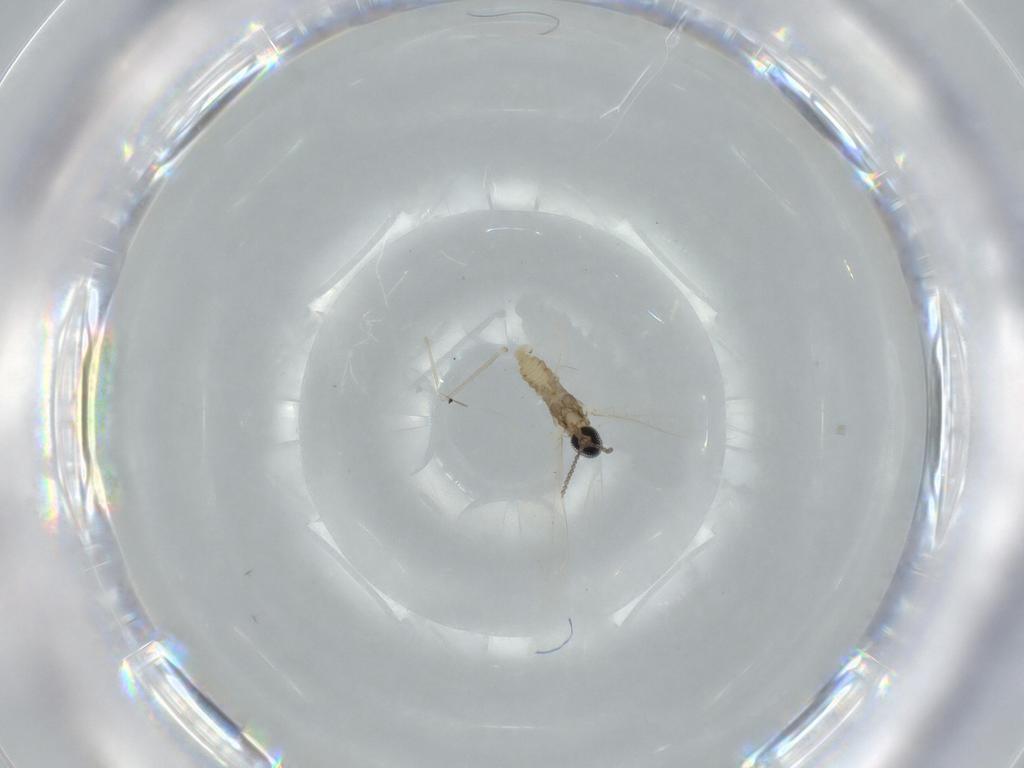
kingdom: Animalia
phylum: Arthropoda
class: Insecta
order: Diptera
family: Cecidomyiidae
